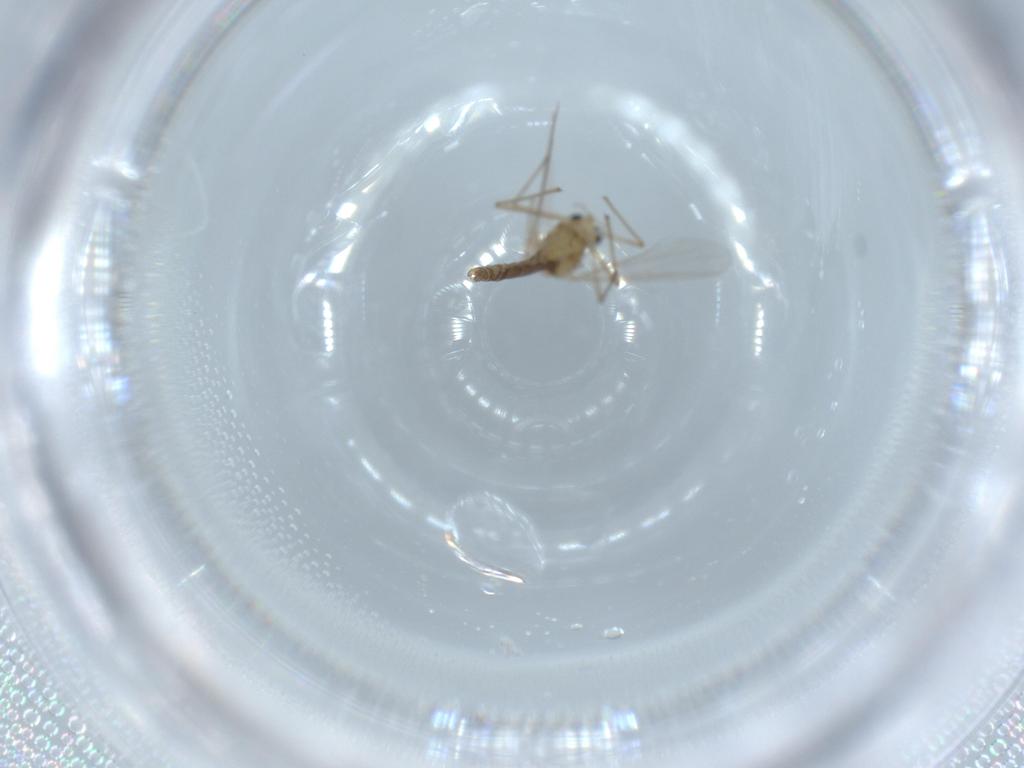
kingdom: Animalia
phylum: Arthropoda
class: Insecta
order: Diptera
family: Chironomidae
